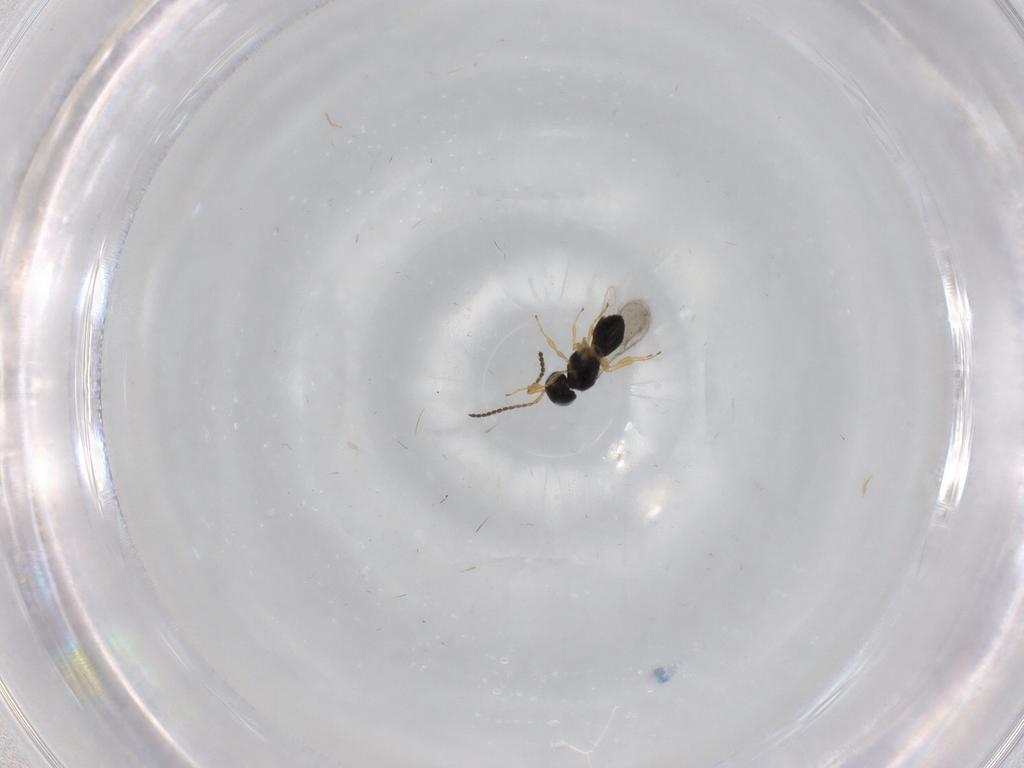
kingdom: Animalia
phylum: Arthropoda
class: Insecta
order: Hymenoptera
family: Scelionidae
